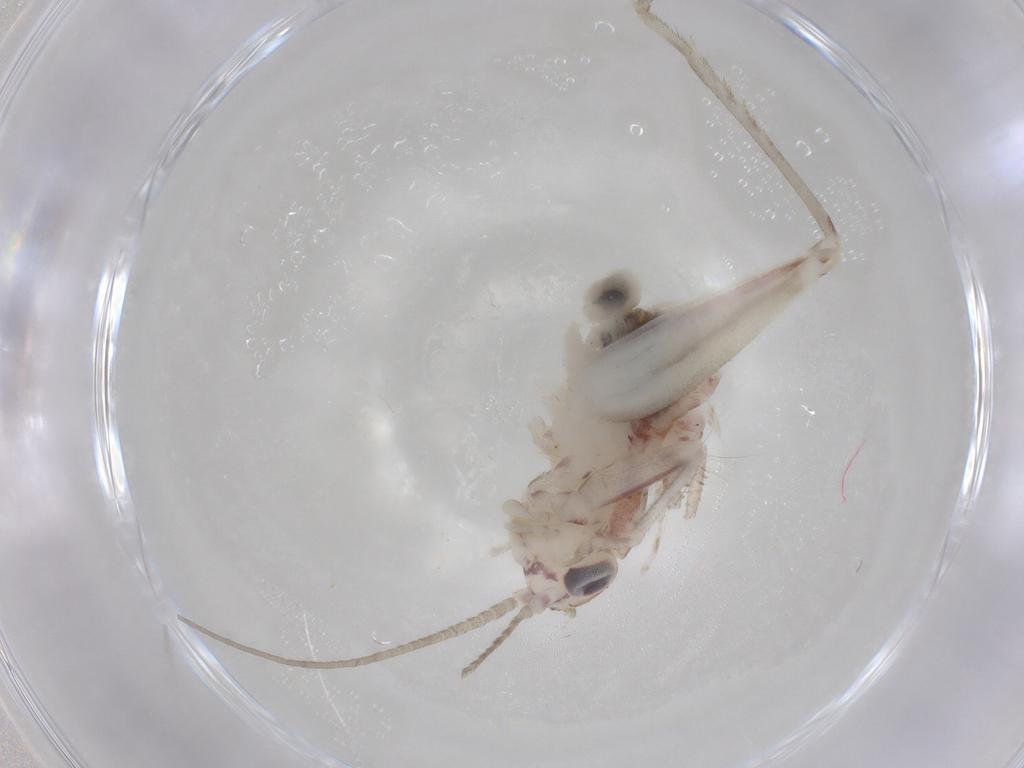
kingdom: Animalia
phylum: Arthropoda
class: Insecta
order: Orthoptera
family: Trigonidiidae
